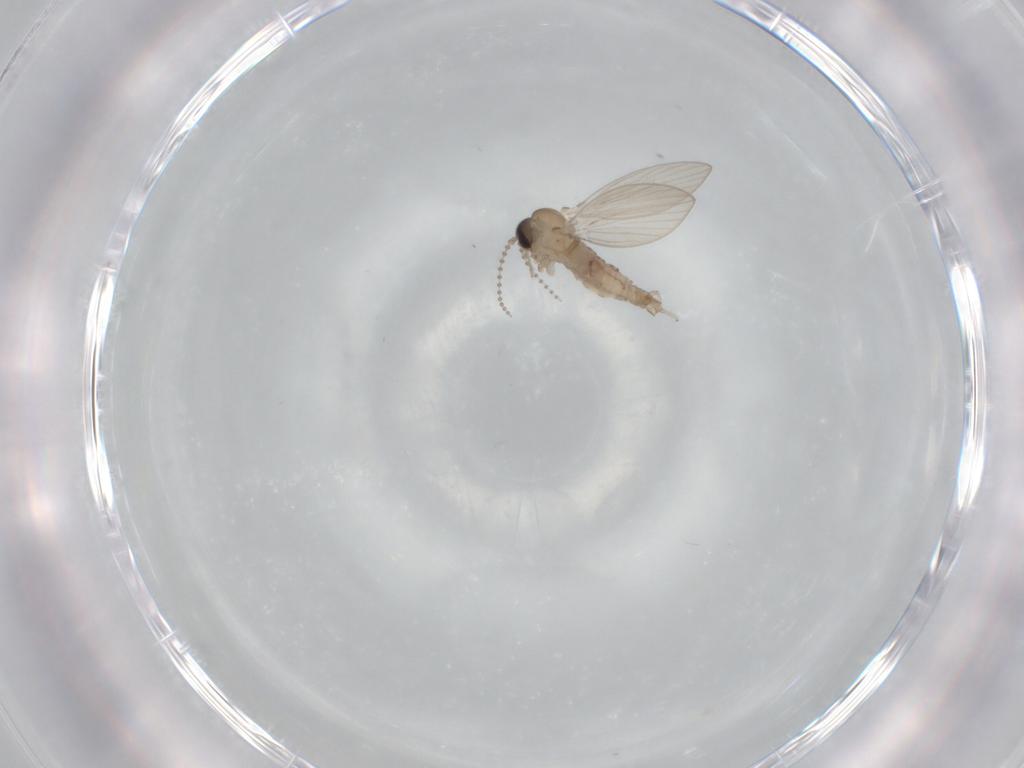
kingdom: Animalia
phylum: Arthropoda
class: Insecta
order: Diptera
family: Psychodidae
